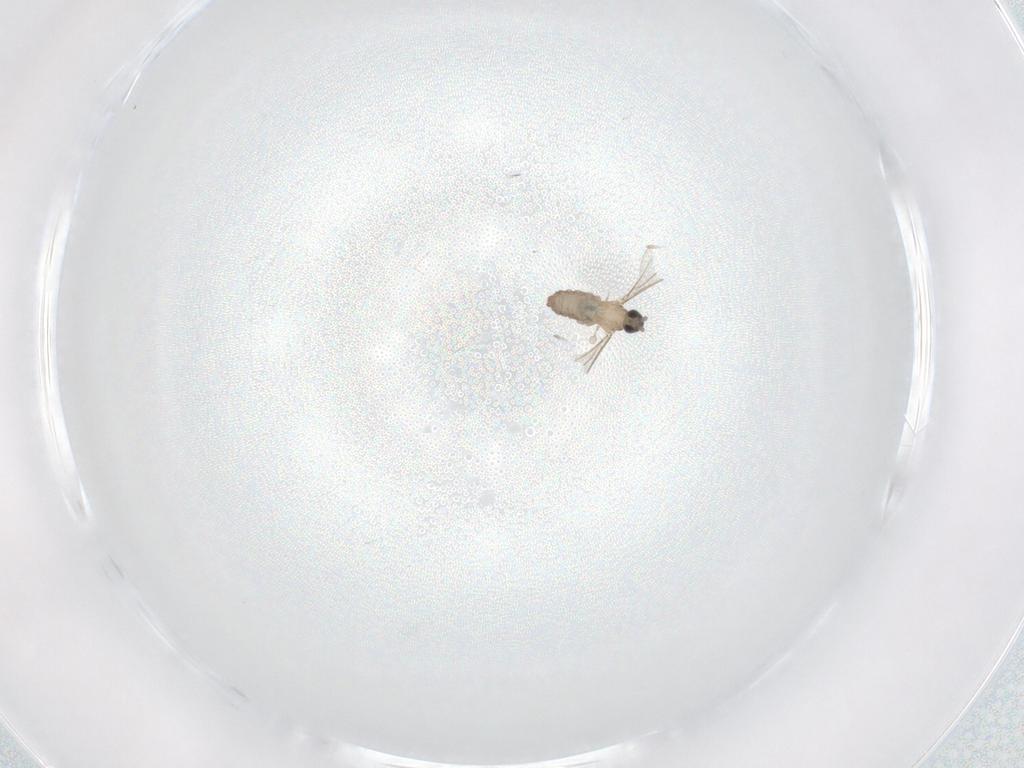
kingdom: Animalia
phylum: Arthropoda
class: Insecta
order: Diptera
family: Cecidomyiidae
